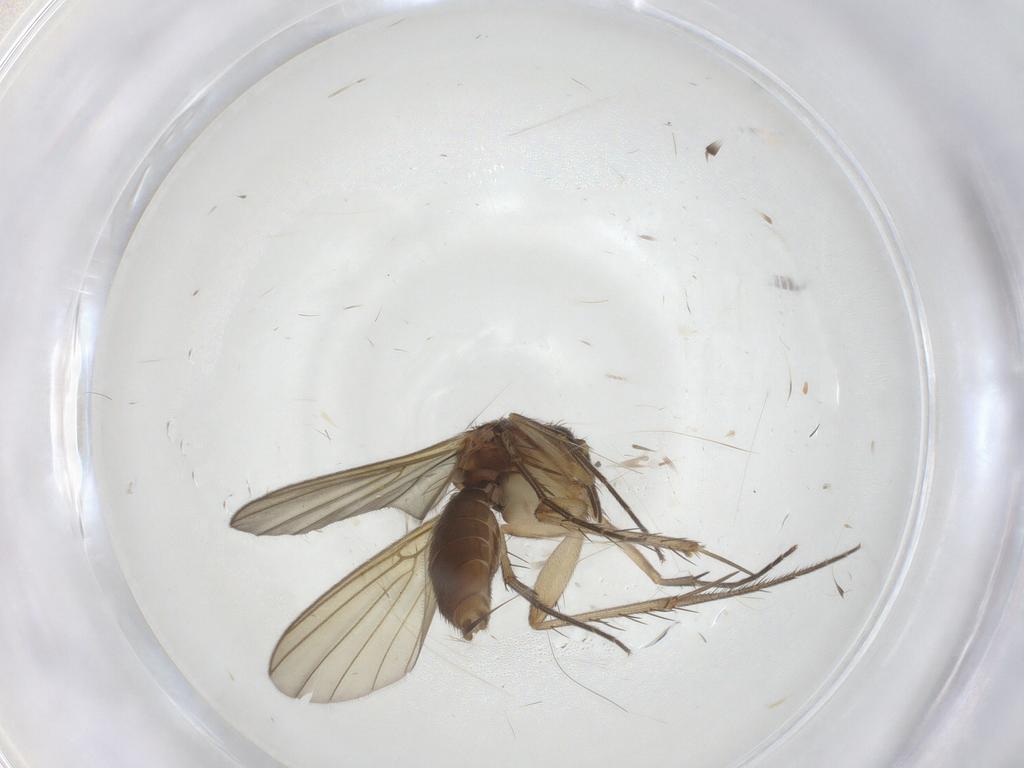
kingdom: Animalia
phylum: Arthropoda
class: Insecta
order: Diptera
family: Mycetophilidae
